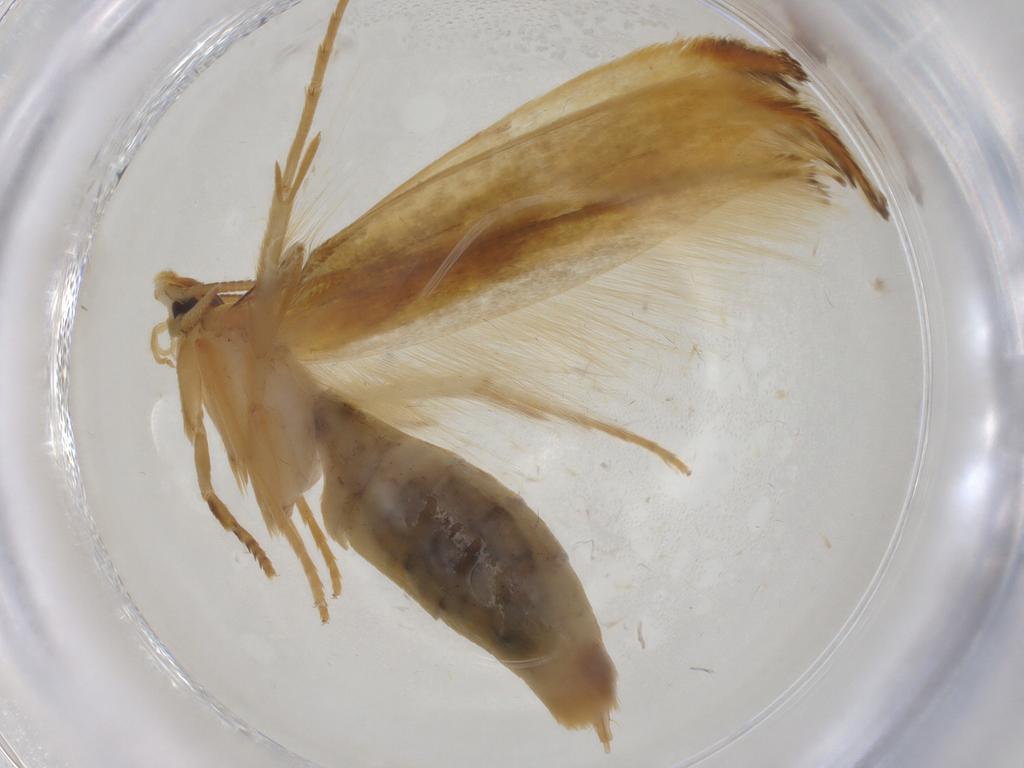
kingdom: Animalia
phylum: Arthropoda
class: Insecta
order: Lepidoptera
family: Tineidae
